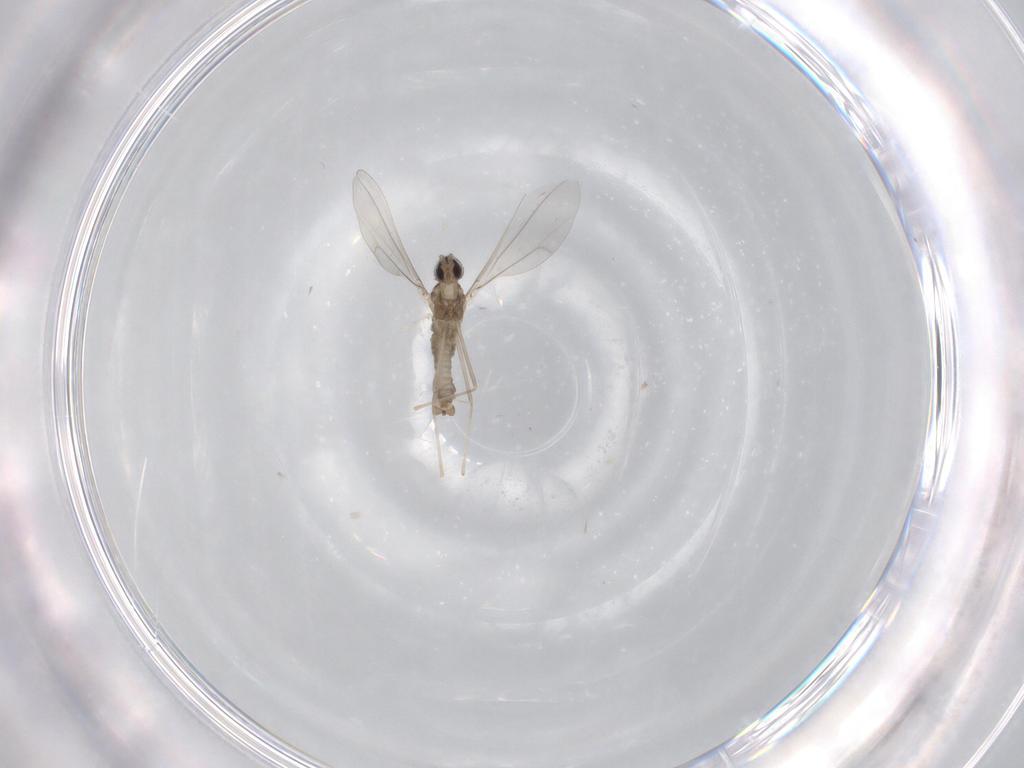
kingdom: Animalia
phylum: Arthropoda
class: Insecta
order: Diptera
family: Cecidomyiidae
